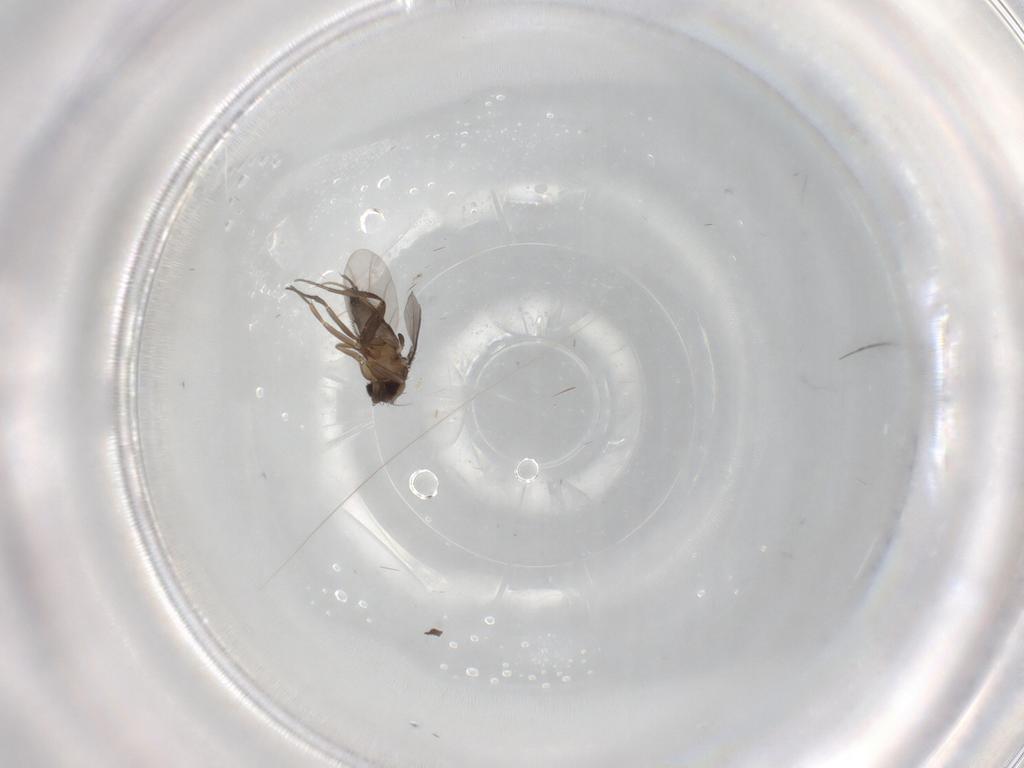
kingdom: Animalia
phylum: Arthropoda
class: Insecta
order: Diptera
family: Phoridae
